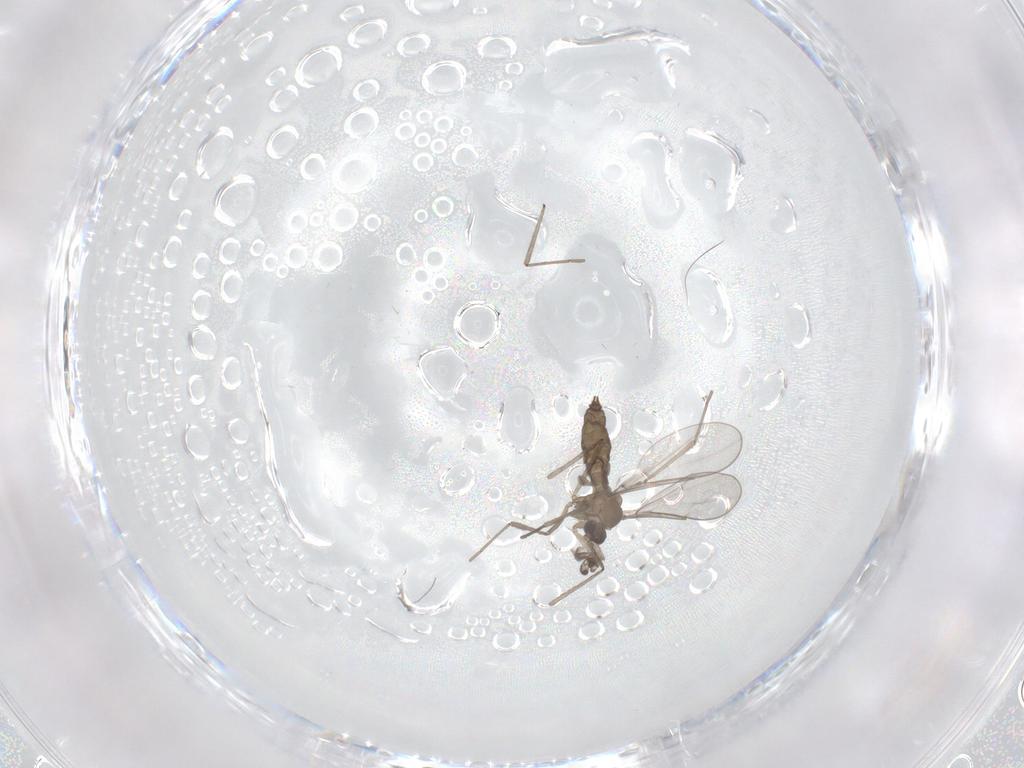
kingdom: Animalia
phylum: Arthropoda
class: Insecta
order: Diptera
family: Cecidomyiidae
